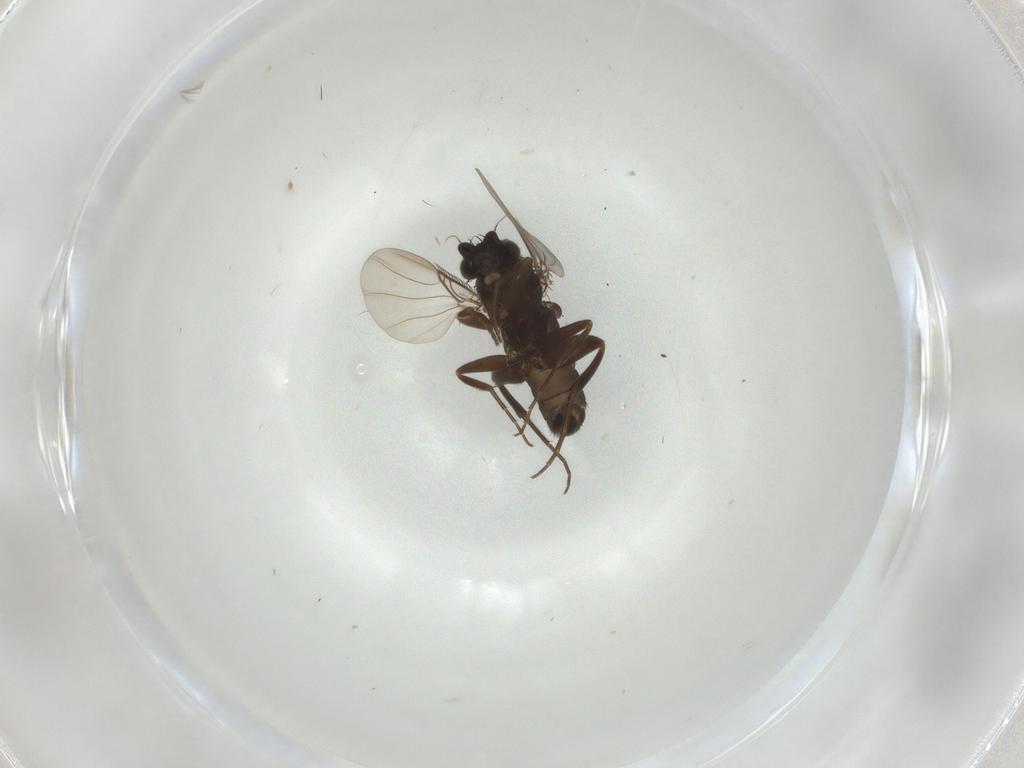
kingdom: Animalia
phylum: Arthropoda
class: Insecta
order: Diptera
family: Phoridae
